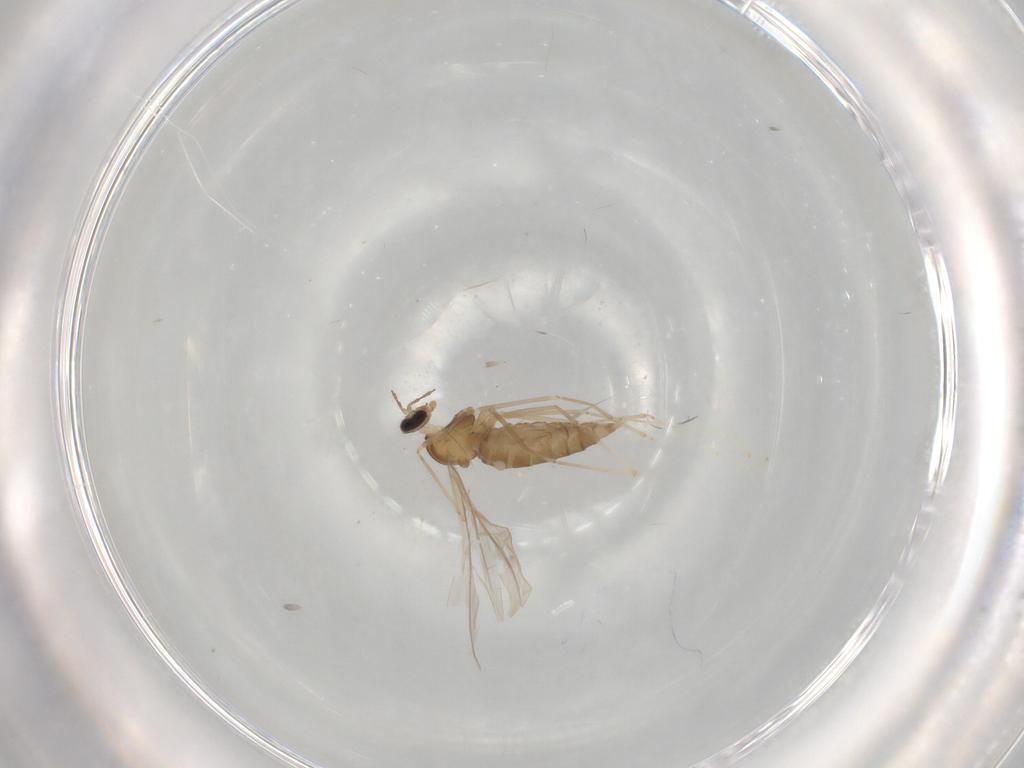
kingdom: Animalia
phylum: Arthropoda
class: Insecta
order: Diptera
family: Cecidomyiidae
